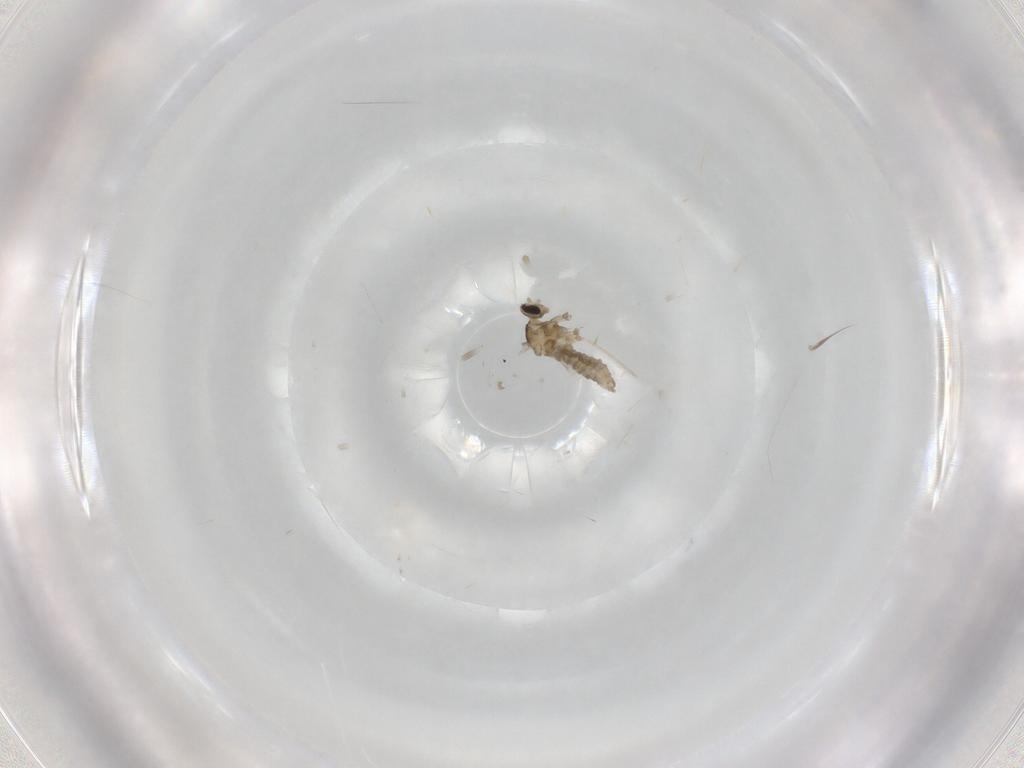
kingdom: Animalia
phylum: Arthropoda
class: Insecta
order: Diptera
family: Cecidomyiidae
